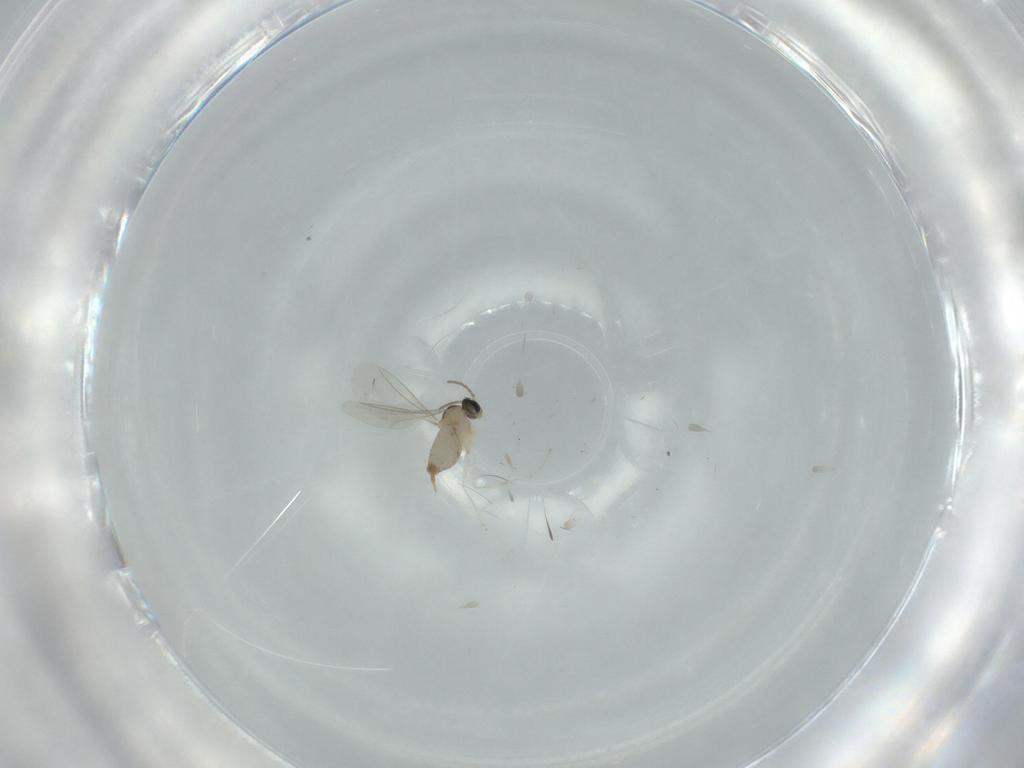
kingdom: Animalia
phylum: Arthropoda
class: Insecta
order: Diptera
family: Cecidomyiidae
